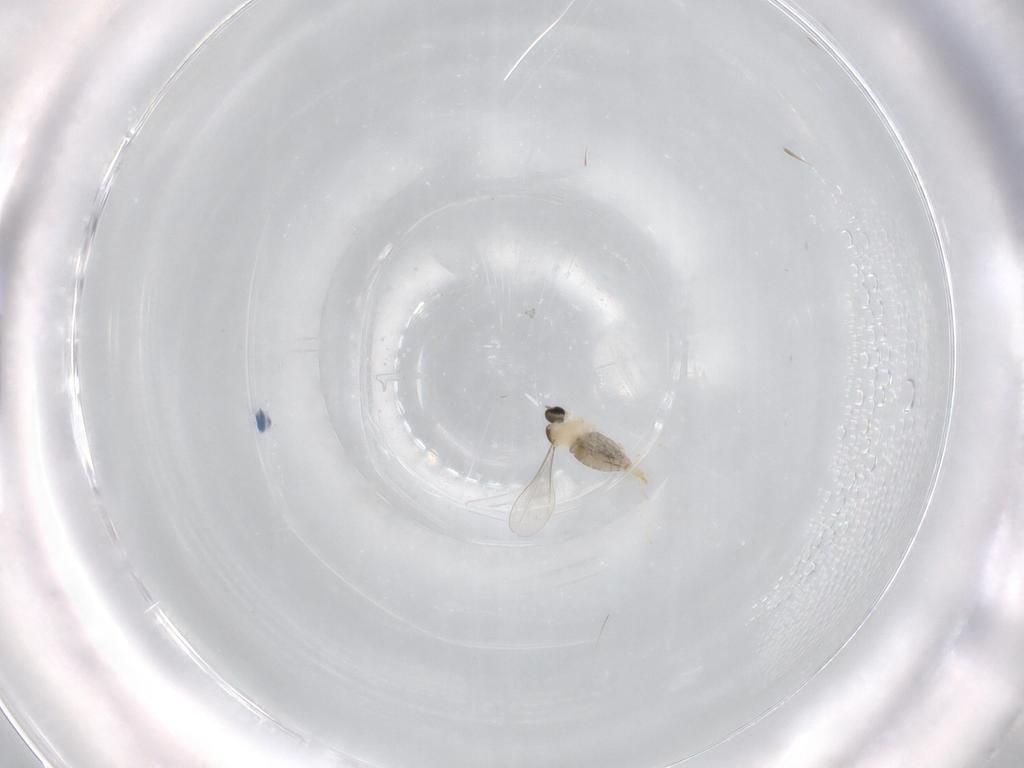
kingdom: Animalia
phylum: Arthropoda
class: Insecta
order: Diptera
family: Cecidomyiidae
